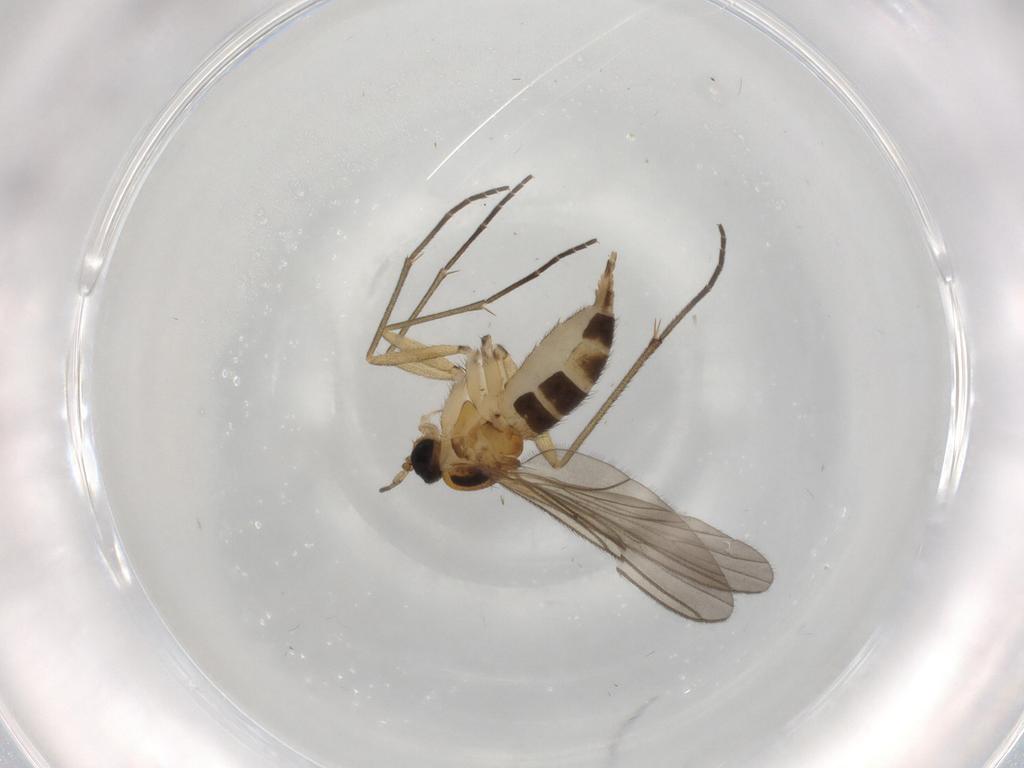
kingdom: Animalia
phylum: Arthropoda
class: Insecta
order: Diptera
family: Sciaridae
